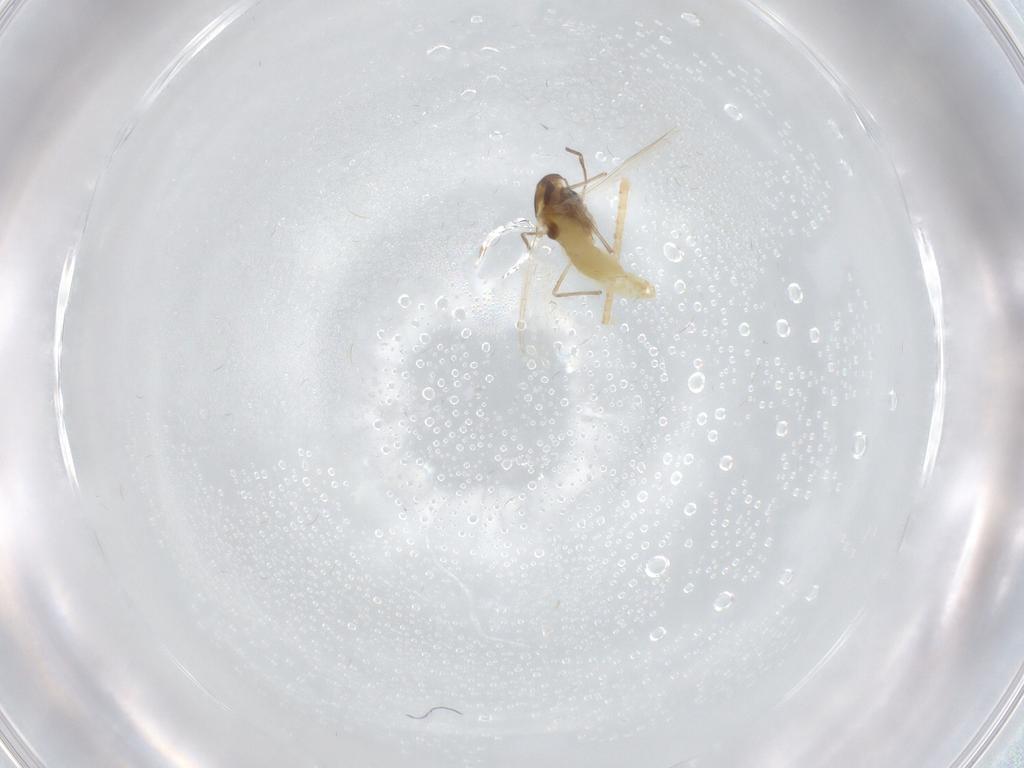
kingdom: Animalia
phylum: Arthropoda
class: Insecta
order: Diptera
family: Chironomidae
